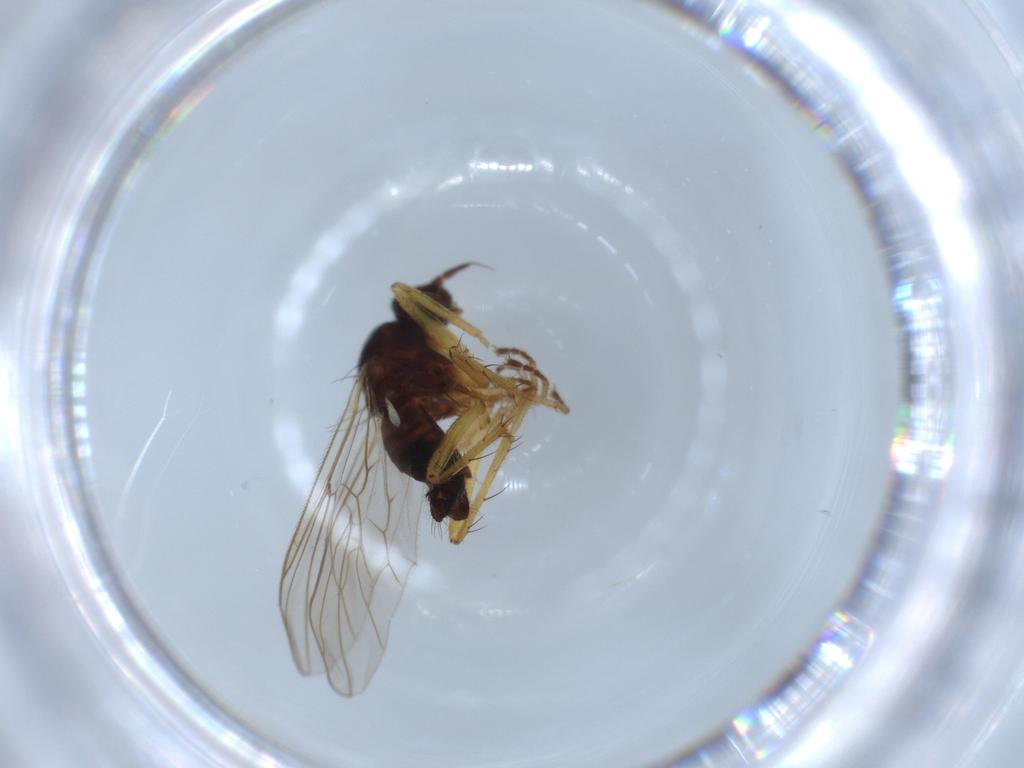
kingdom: Animalia
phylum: Arthropoda
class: Insecta
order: Diptera
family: Hybotidae
